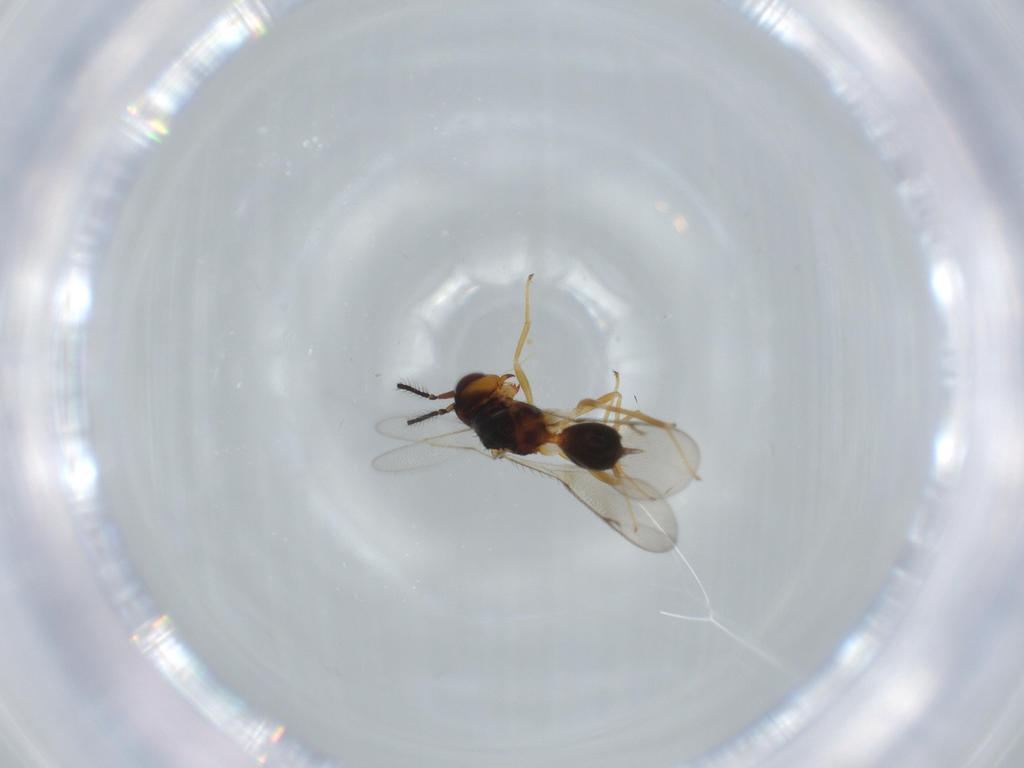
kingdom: Animalia
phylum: Arthropoda
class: Insecta
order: Hymenoptera
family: Diparidae
